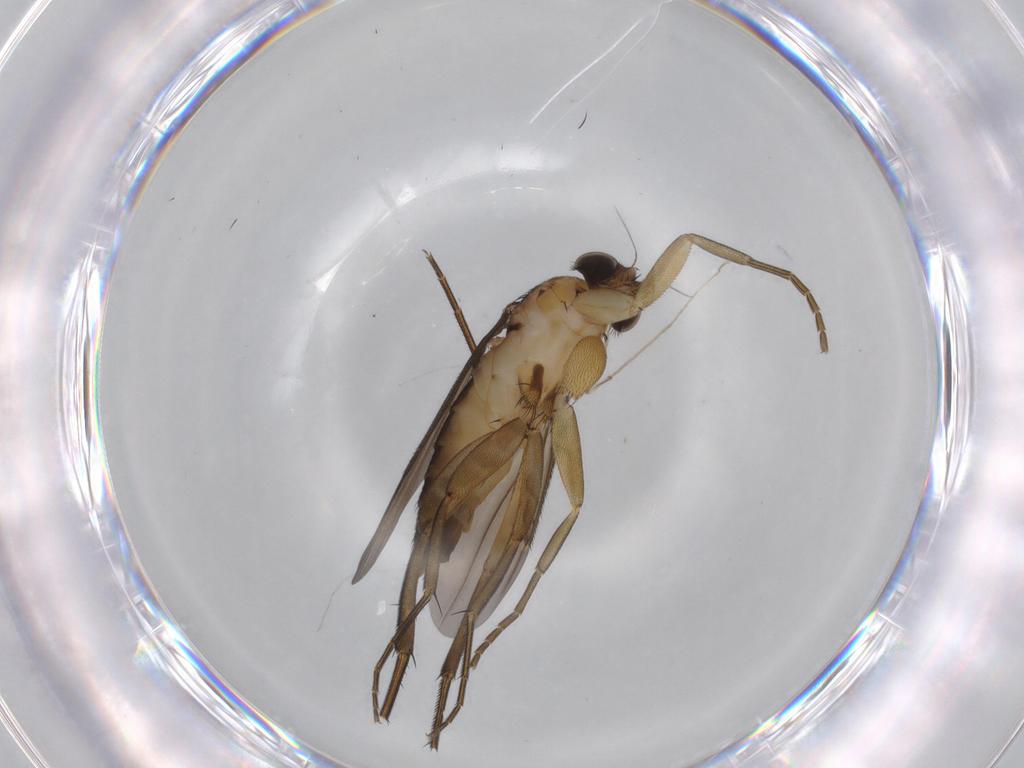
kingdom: Animalia
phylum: Arthropoda
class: Insecta
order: Diptera
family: Phoridae
